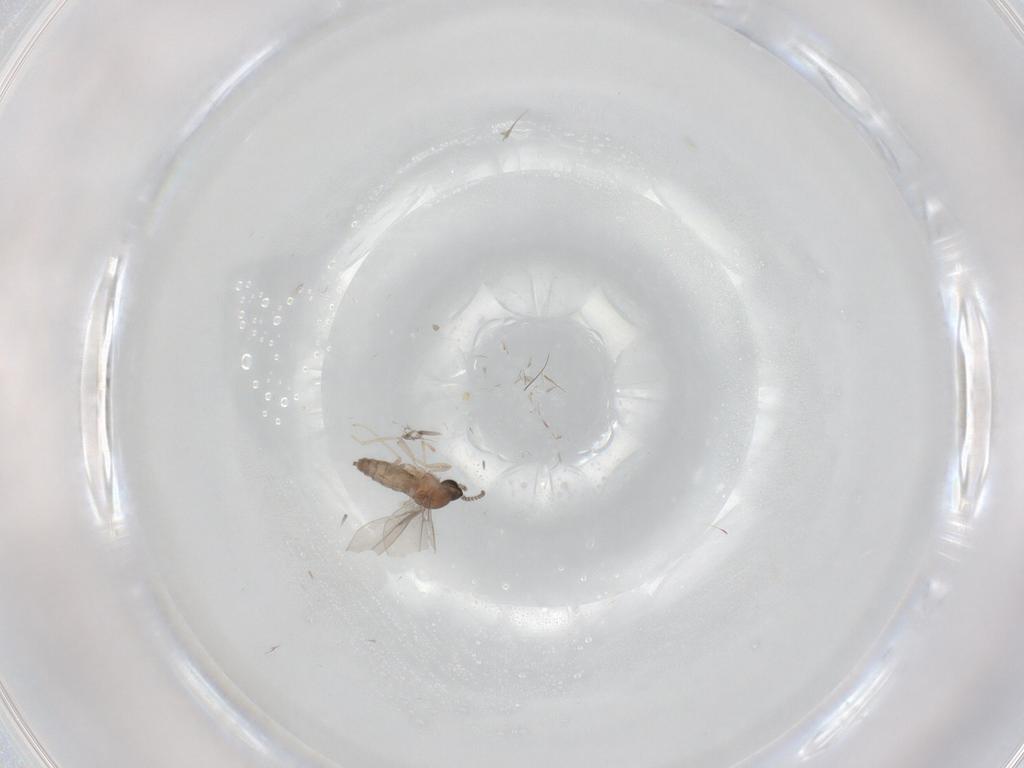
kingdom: Animalia
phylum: Arthropoda
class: Insecta
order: Diptera
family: Cecidomyiidae
